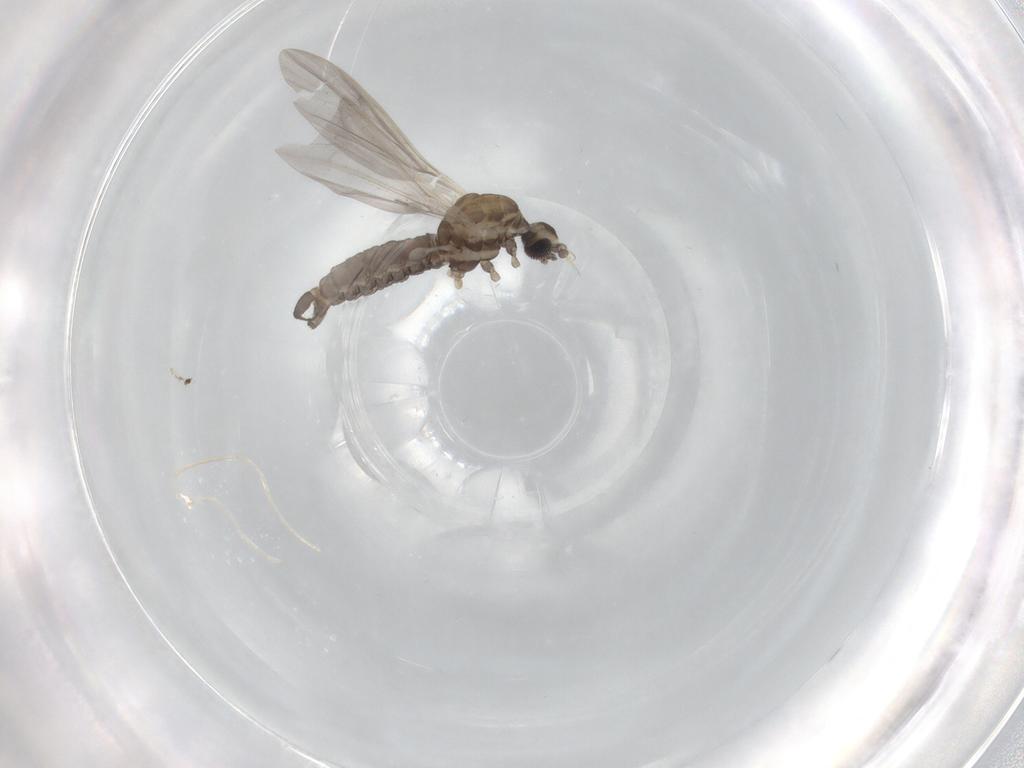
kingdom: Animalia
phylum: Arthropoda
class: Insecta
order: Diptera
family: Limoniidae
